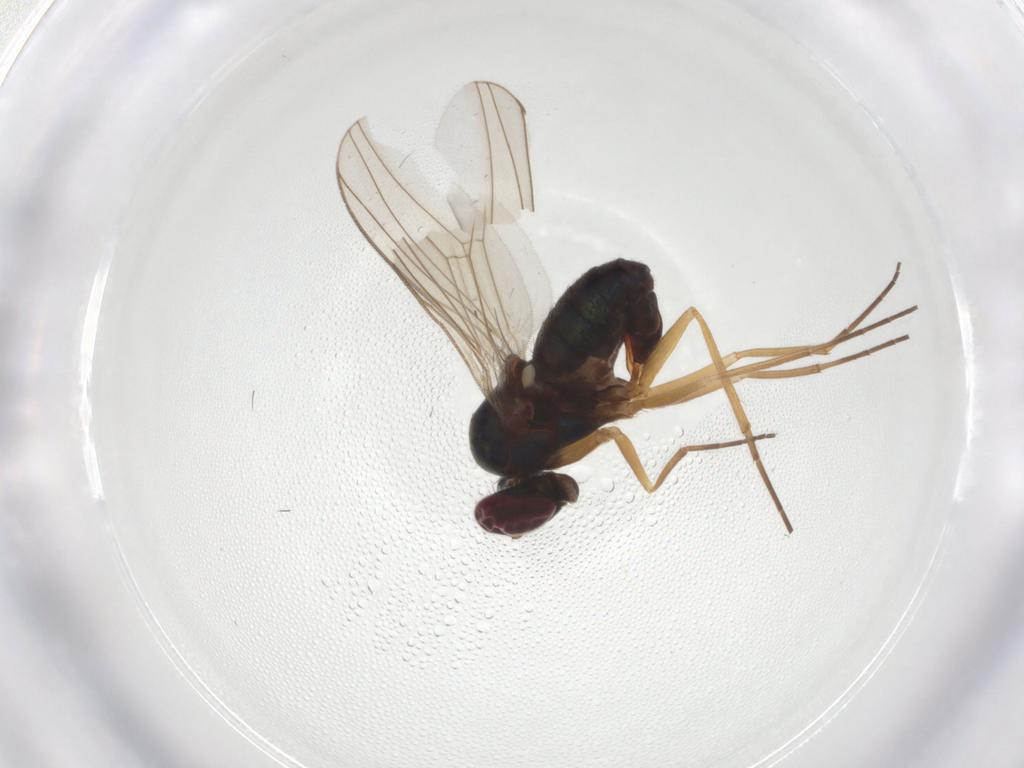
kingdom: Animalia
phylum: Arthropoda
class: Insecta
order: Diptera
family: Dolichopodidae
